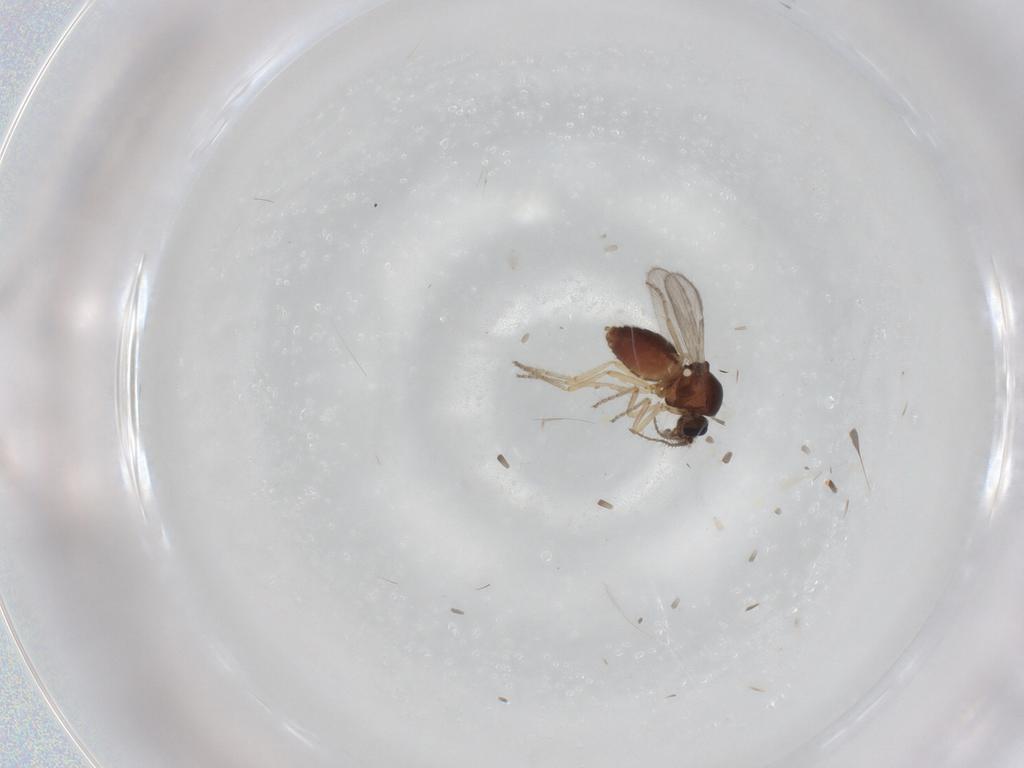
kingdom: Animalia
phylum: Arthropoda
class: Insecta
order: Diptera
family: Ceratopogonidae
